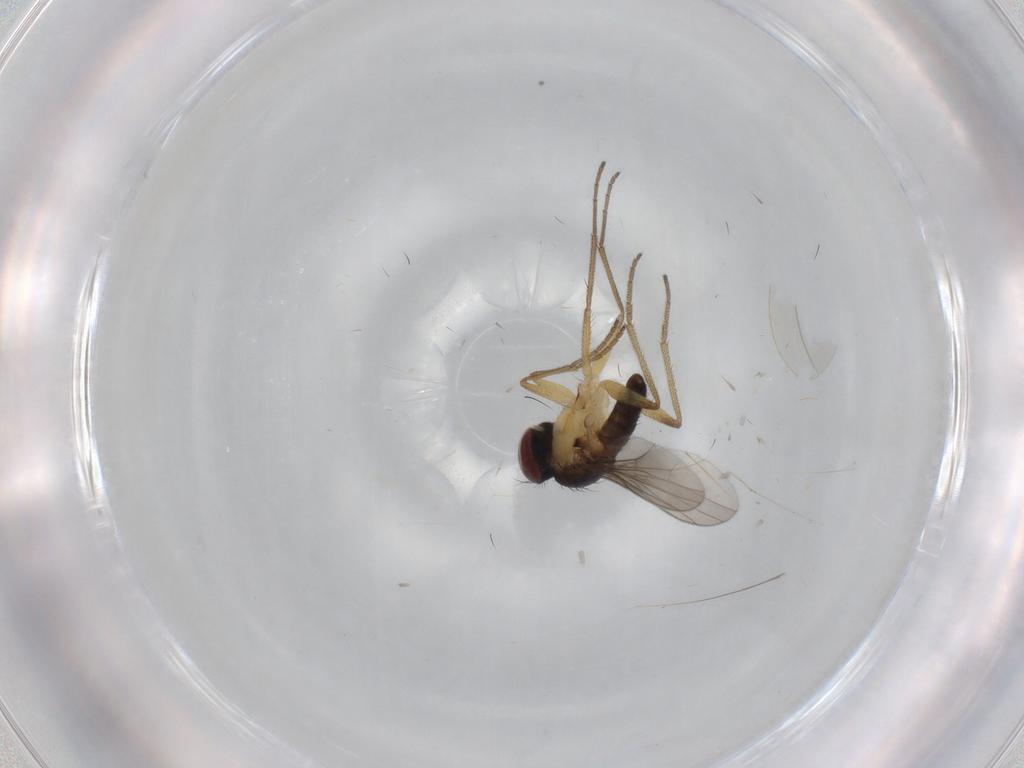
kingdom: Animalia
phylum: Arthropoda
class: Insecta
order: Diptera
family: Dolichopodidae
